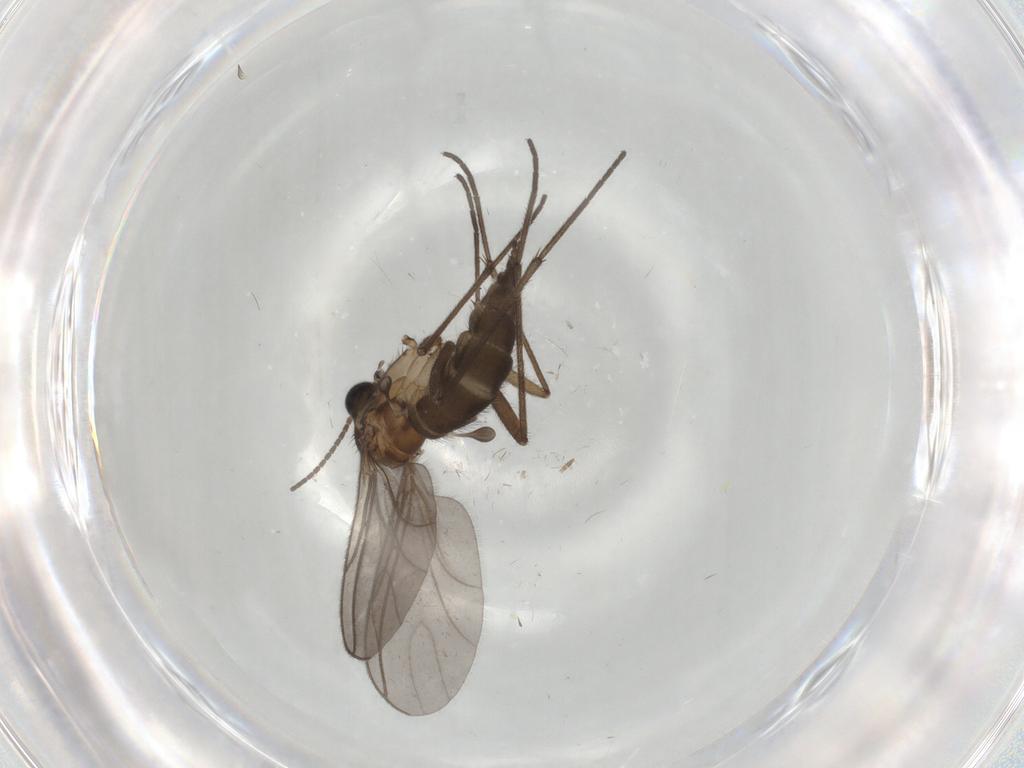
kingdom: Animalia
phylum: Arthropoda
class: Insecta
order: Diptera
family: Sciaridae
